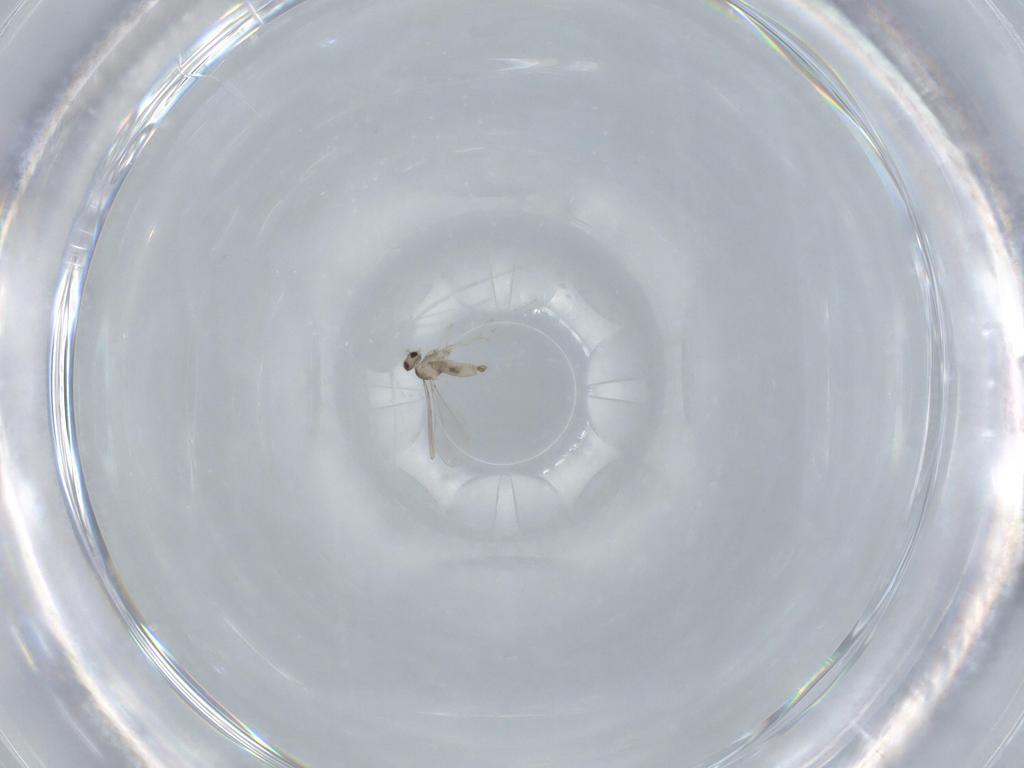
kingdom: Animalia
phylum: Arthropoda
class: Insecta
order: Diptera
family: Cecidomyiidae
